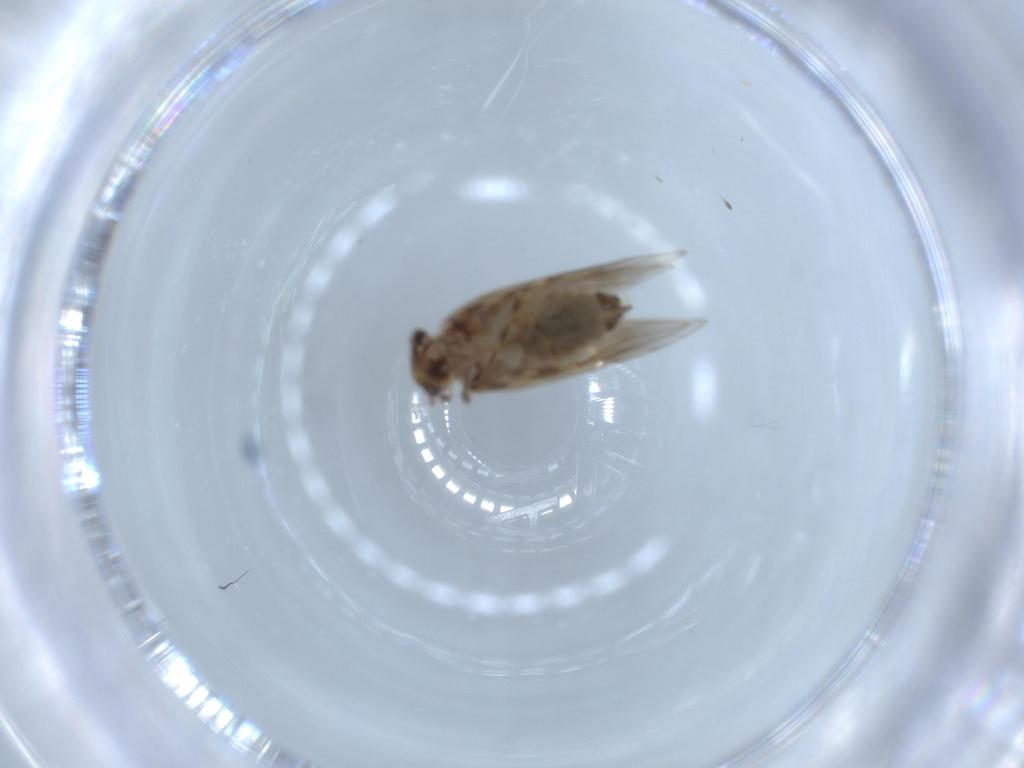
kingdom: Animalia
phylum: Arthropoda
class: Insecta
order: Psocodea
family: Lepidopsocidae
